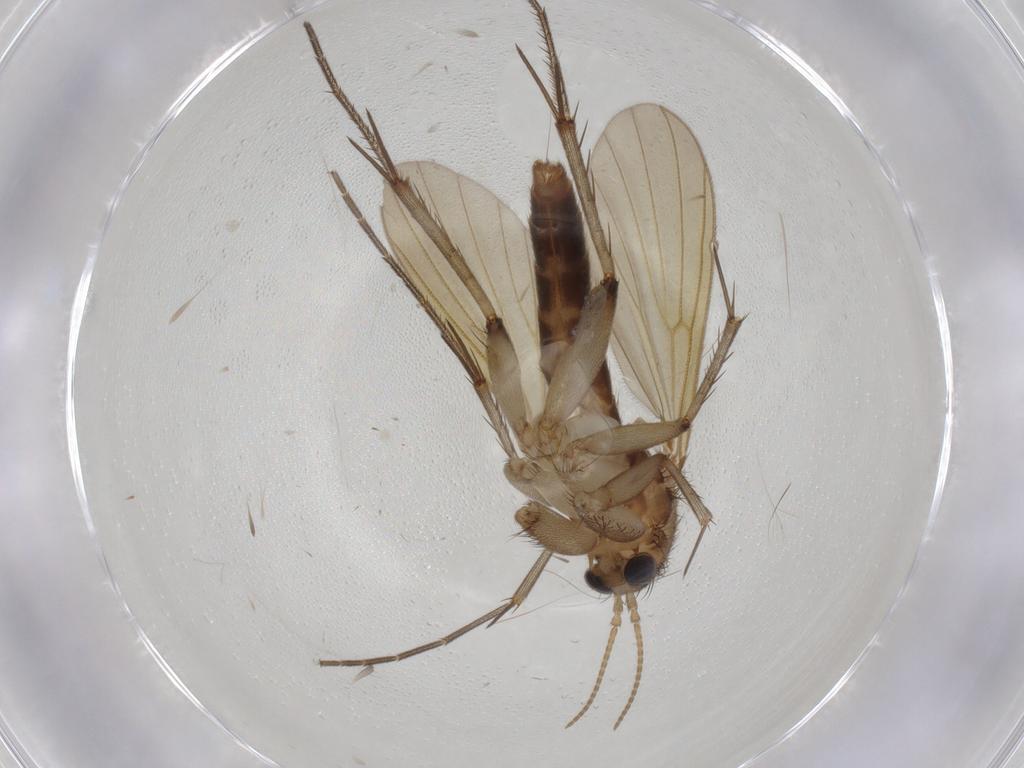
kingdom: Animalia
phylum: Arthropoda
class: Insecta
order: Diptera
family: Mycetophilidae
